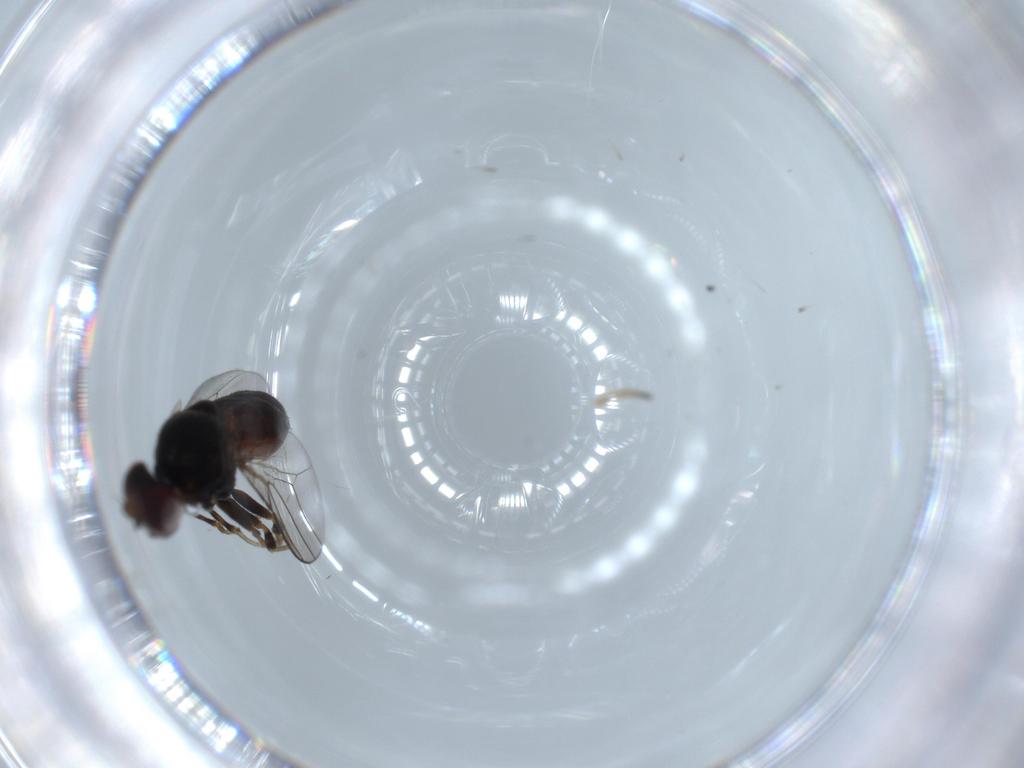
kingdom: Animalia
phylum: Arthropoda
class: Insecta
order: Diptera
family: Chloropidae
